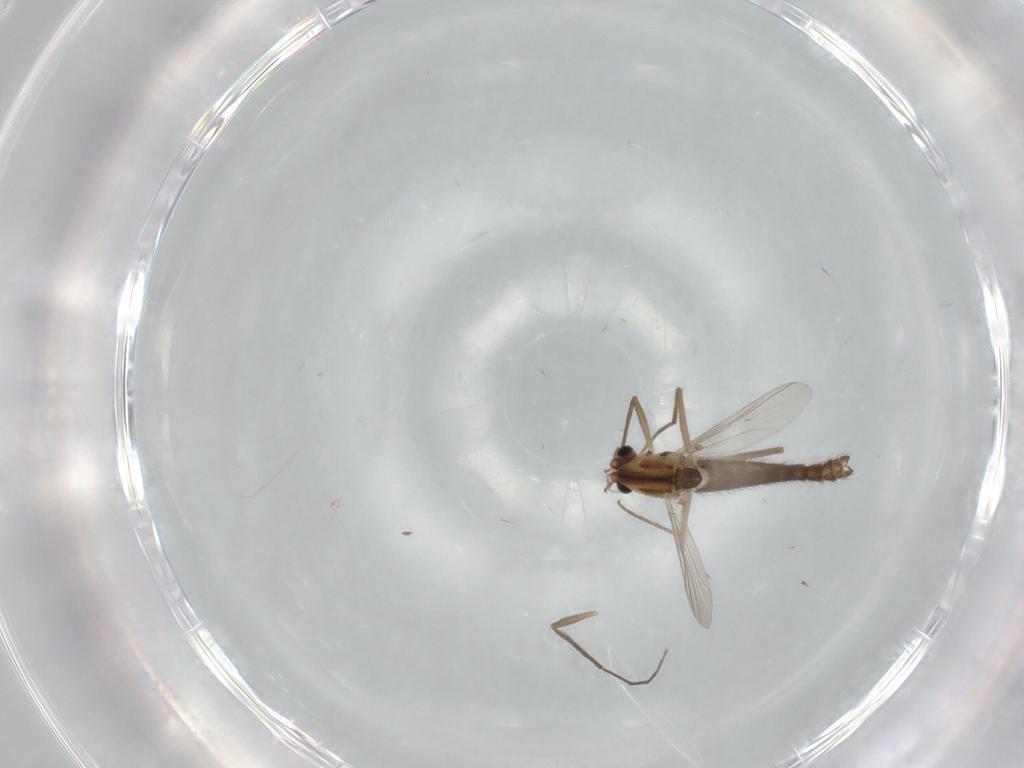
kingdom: Animalia
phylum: Arthropoda
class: Insecta
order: Diptera
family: Chironomidae
